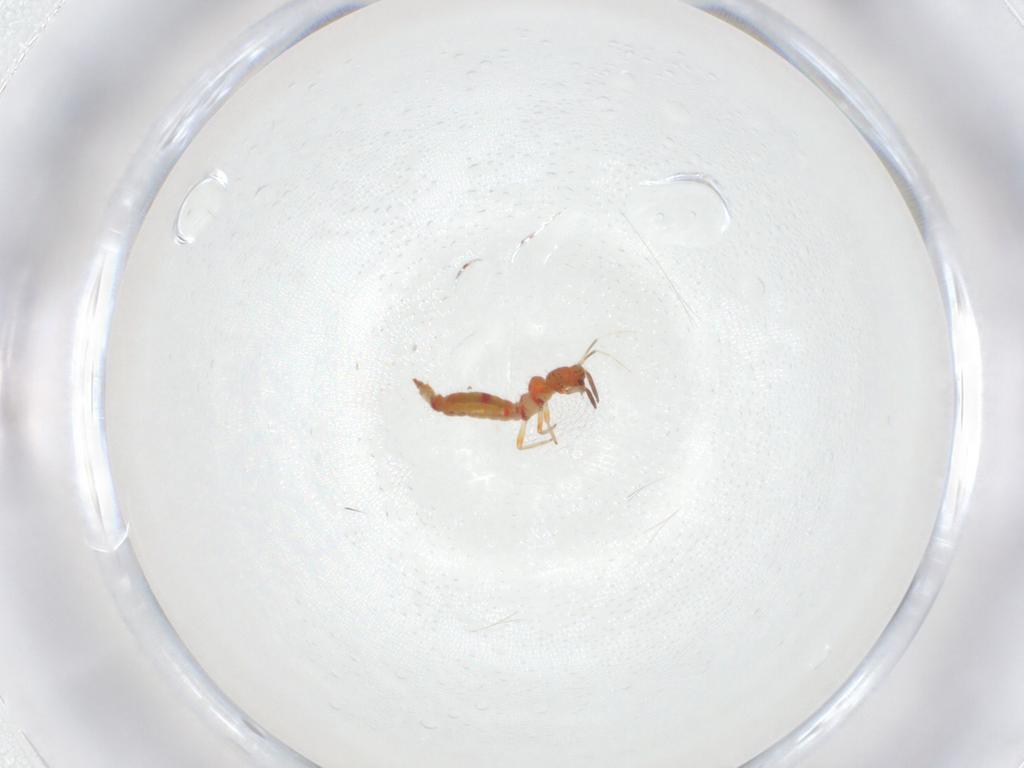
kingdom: Animalia
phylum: Arthropoda
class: Insecta
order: Thysanoptera
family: Aeolothripidae
